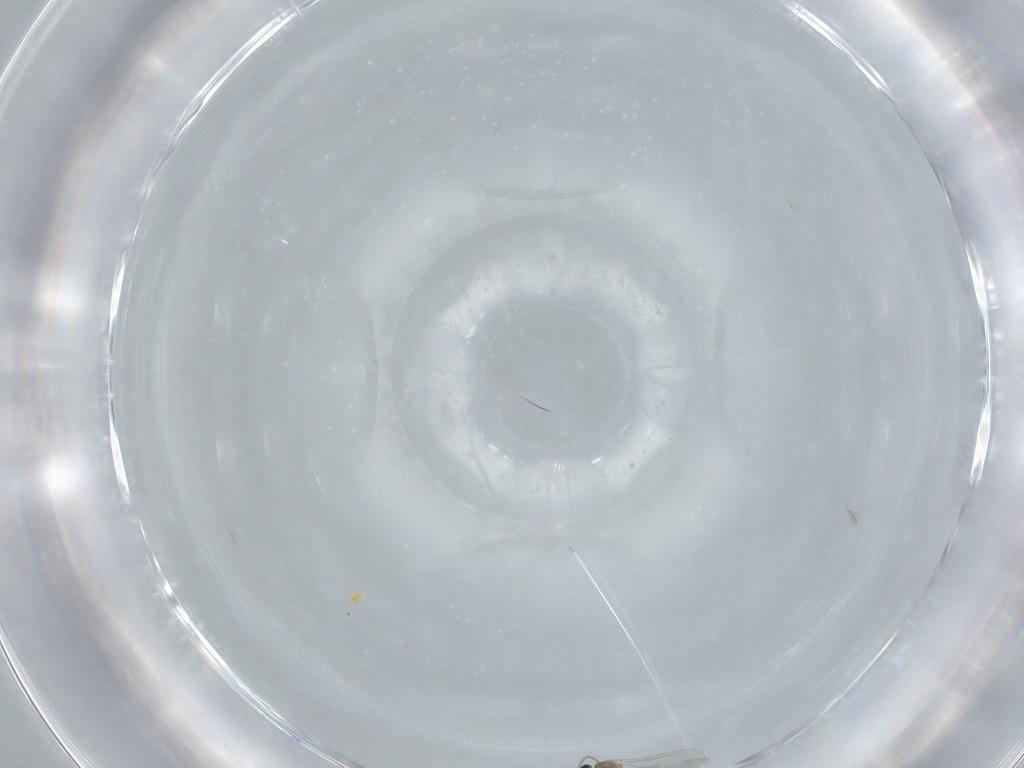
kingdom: Animalia
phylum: Arthropoda
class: Insecta
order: Diptera
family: Cecidomyiidae
